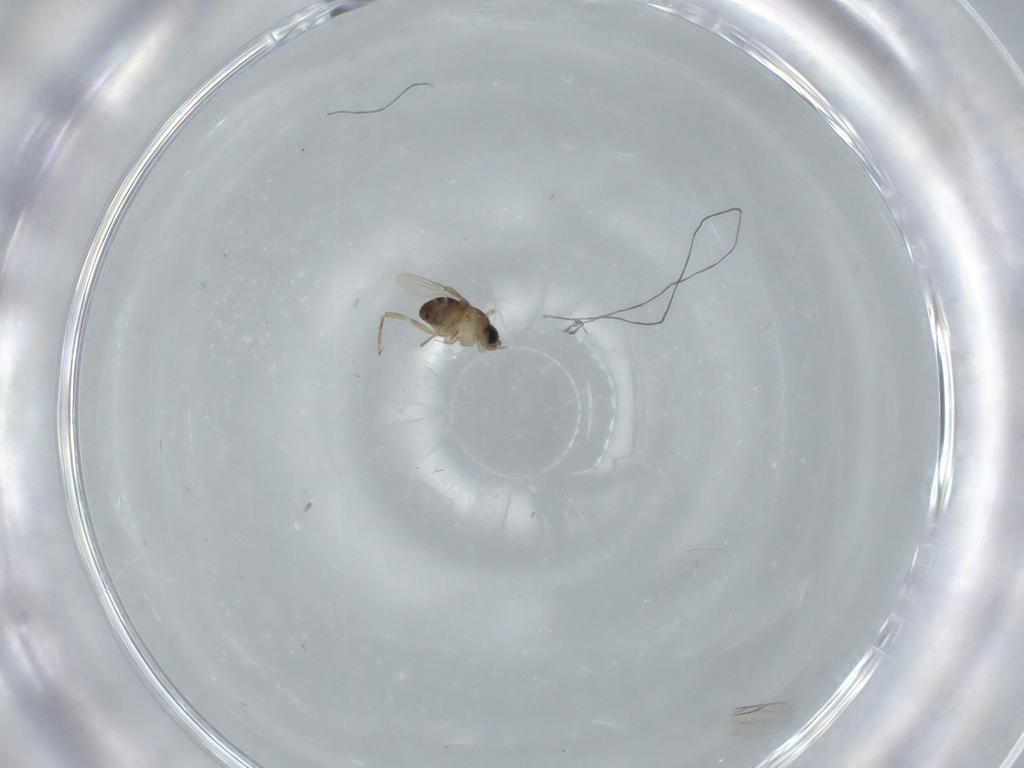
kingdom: Animalia
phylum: Arthropoda
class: Insecta
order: Diptera
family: Phoridae
